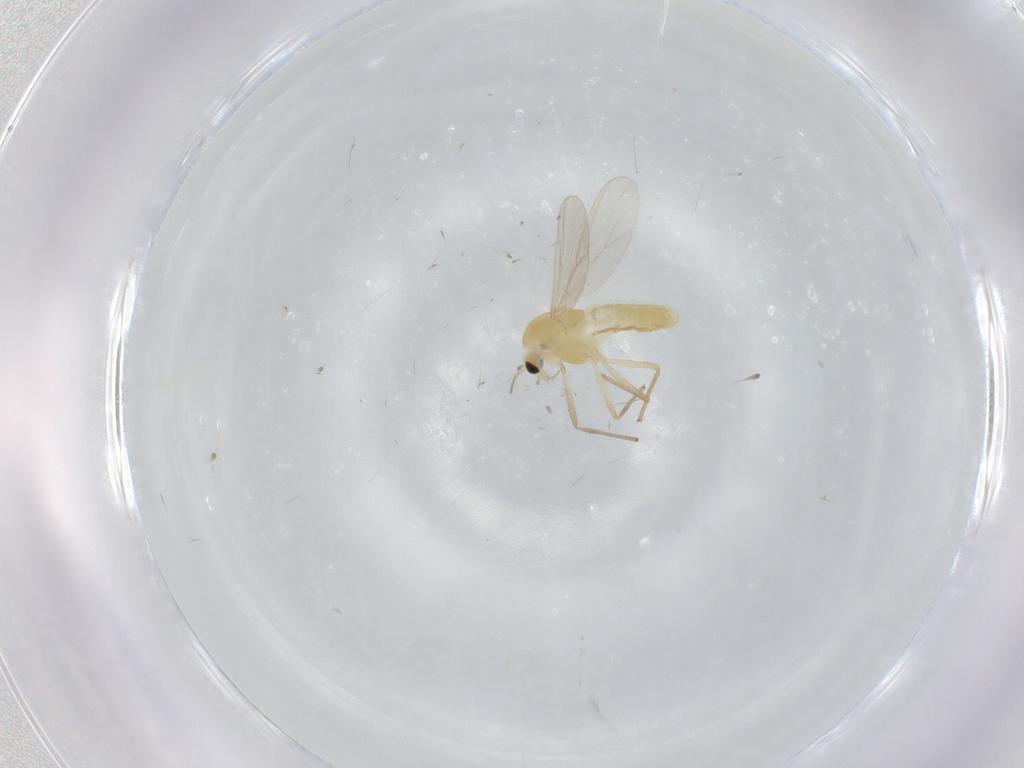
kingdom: Animalia
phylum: Arthropoda
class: Insecta
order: Diptera
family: Chironomidae
